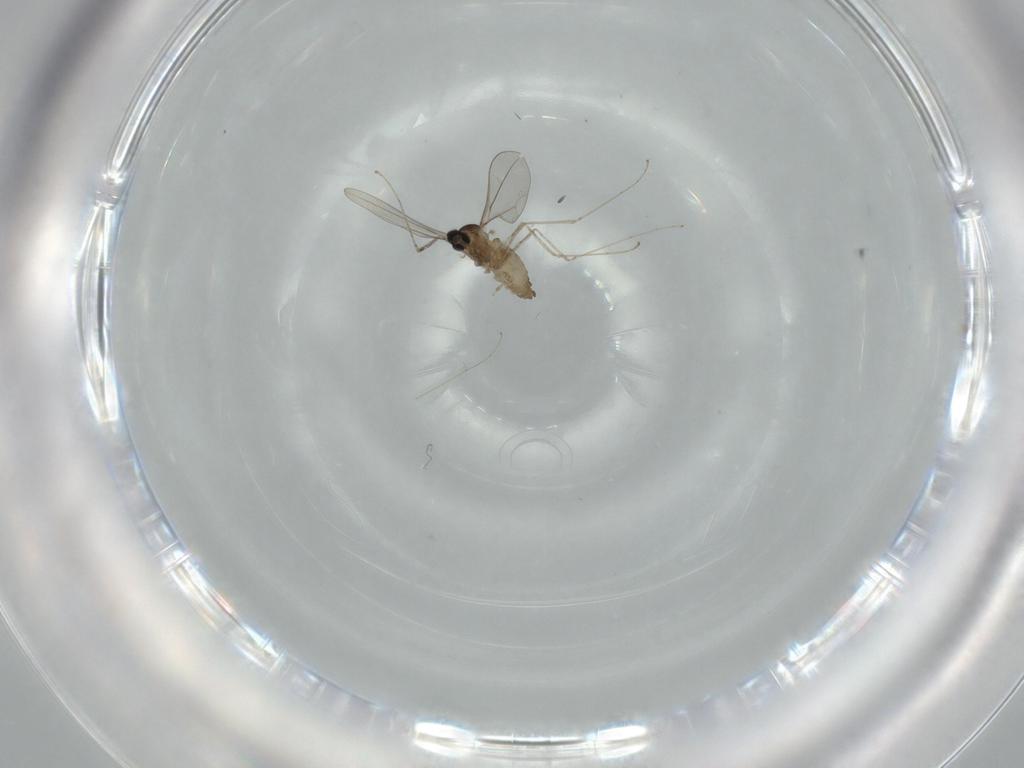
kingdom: Animalia
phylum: Arthropoda
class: Insecta
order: Diptera
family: Cecidomyiidae
